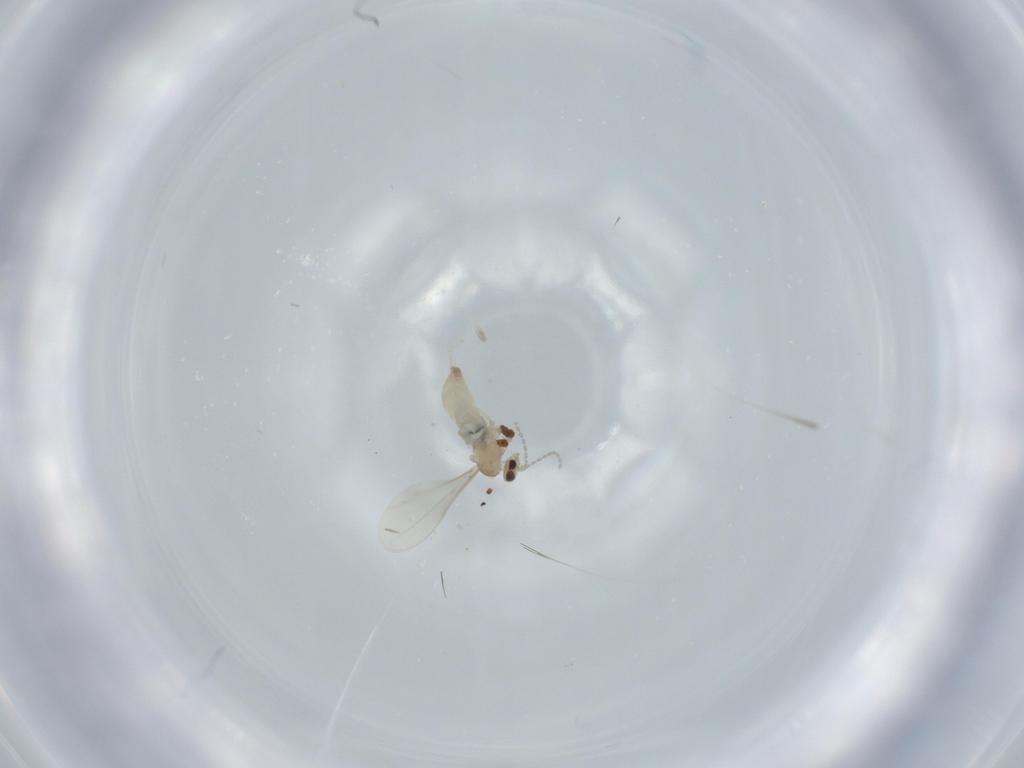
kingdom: Animalia
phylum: Arthropoda
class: Insecta
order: Diptera
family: Cecidomyiidae
